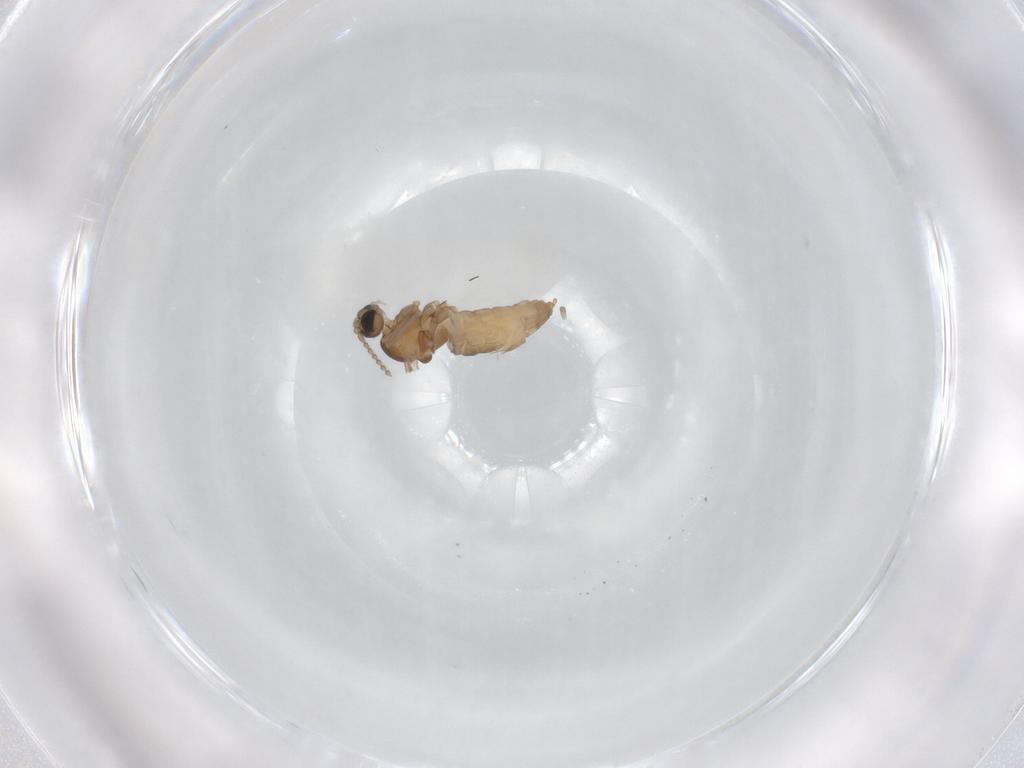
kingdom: Animalia
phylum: Arthropoda
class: Insecta
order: Diptera
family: Cecidomyiidae
